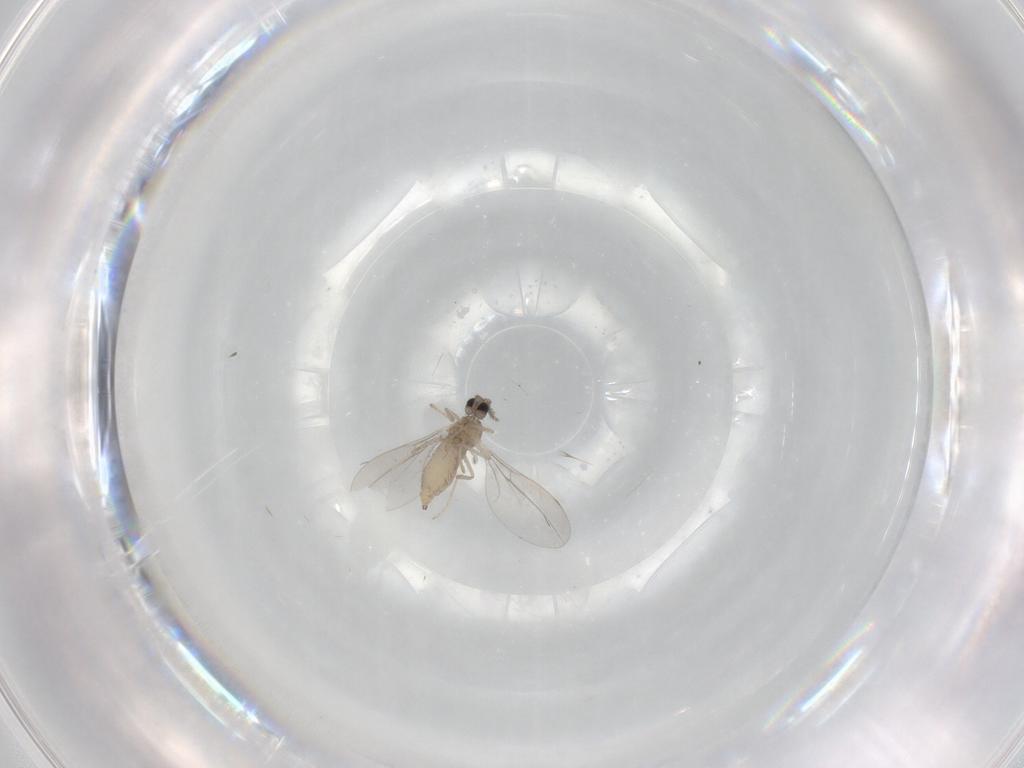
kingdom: Animalia
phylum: Arthropoda
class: Insecta
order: Diptera
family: Cecidomyiidae
